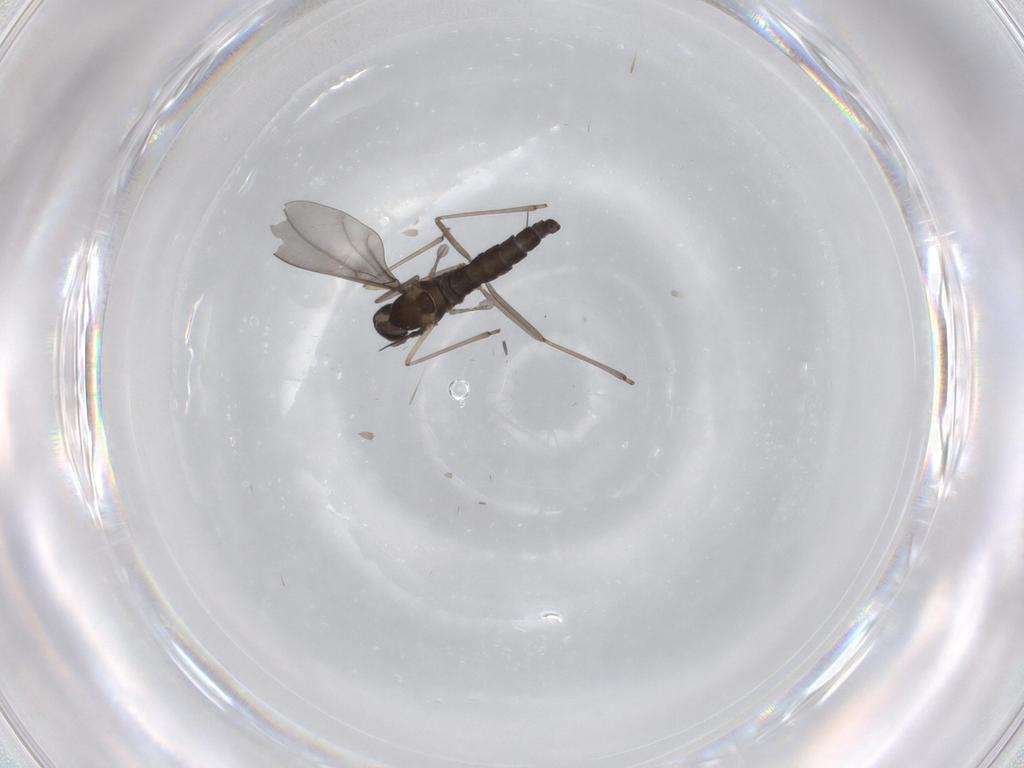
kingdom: Animalia
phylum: Arthropoda
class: Insecta
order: Diptera
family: Cecidomyiidae
